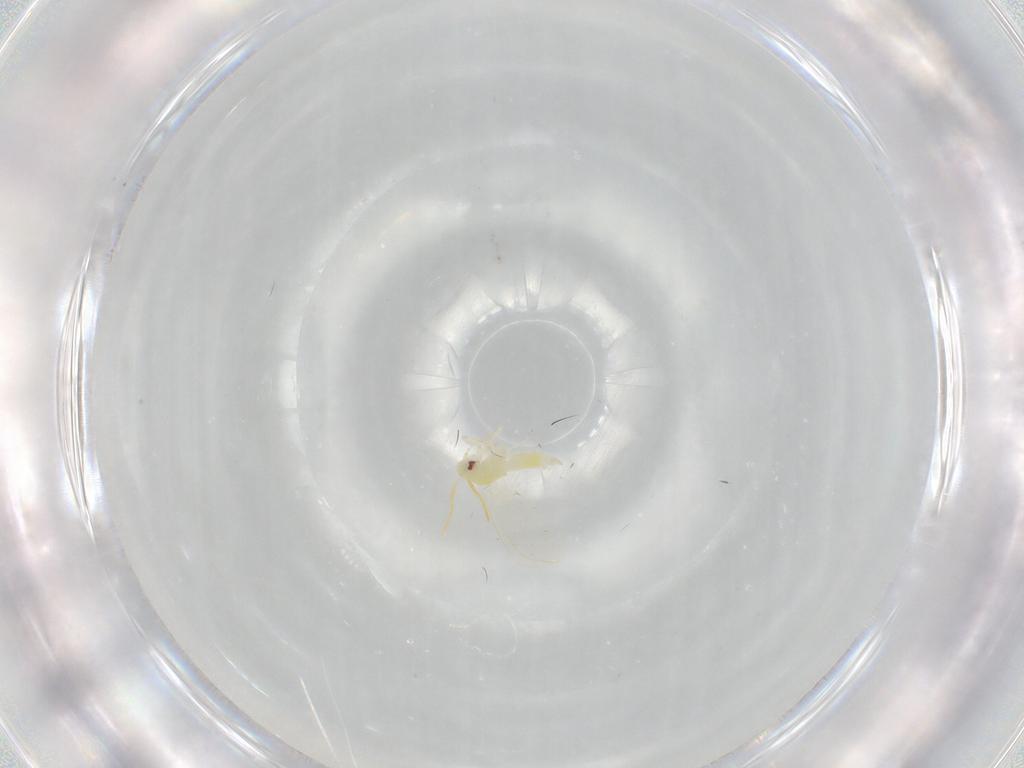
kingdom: Animalia
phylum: Arthropoda
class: Insecta
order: Hemiptera
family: Aleyrodidae
